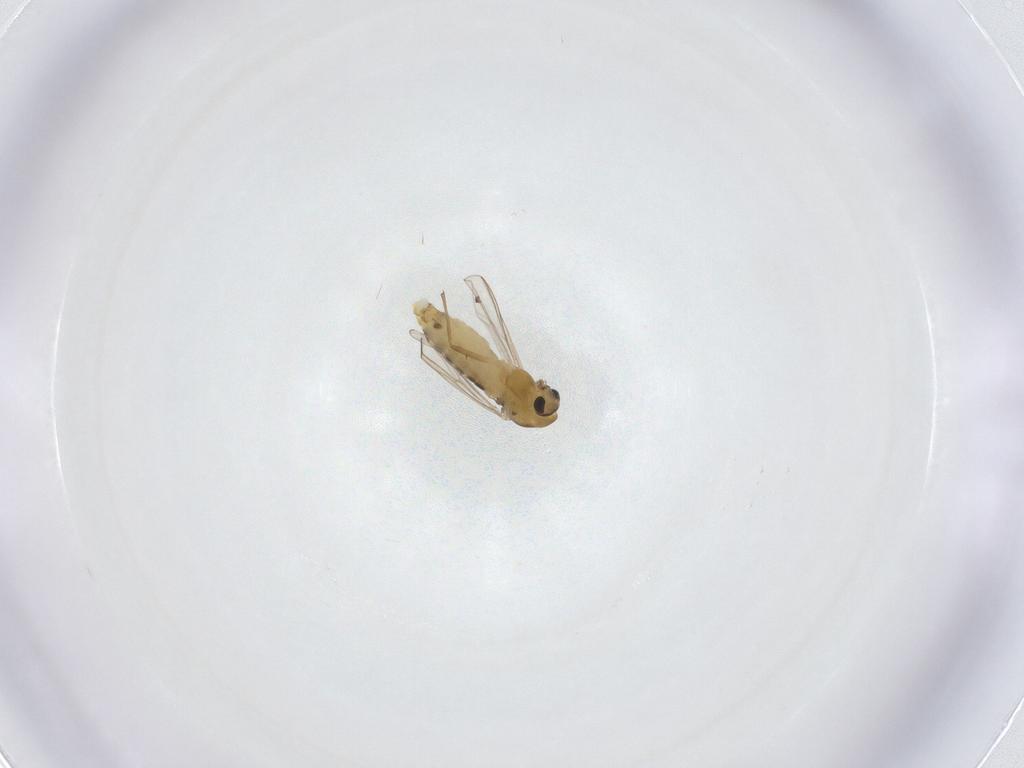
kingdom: Animalia
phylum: Arthropoda
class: Insecta
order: Diptera
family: Chironomidae
